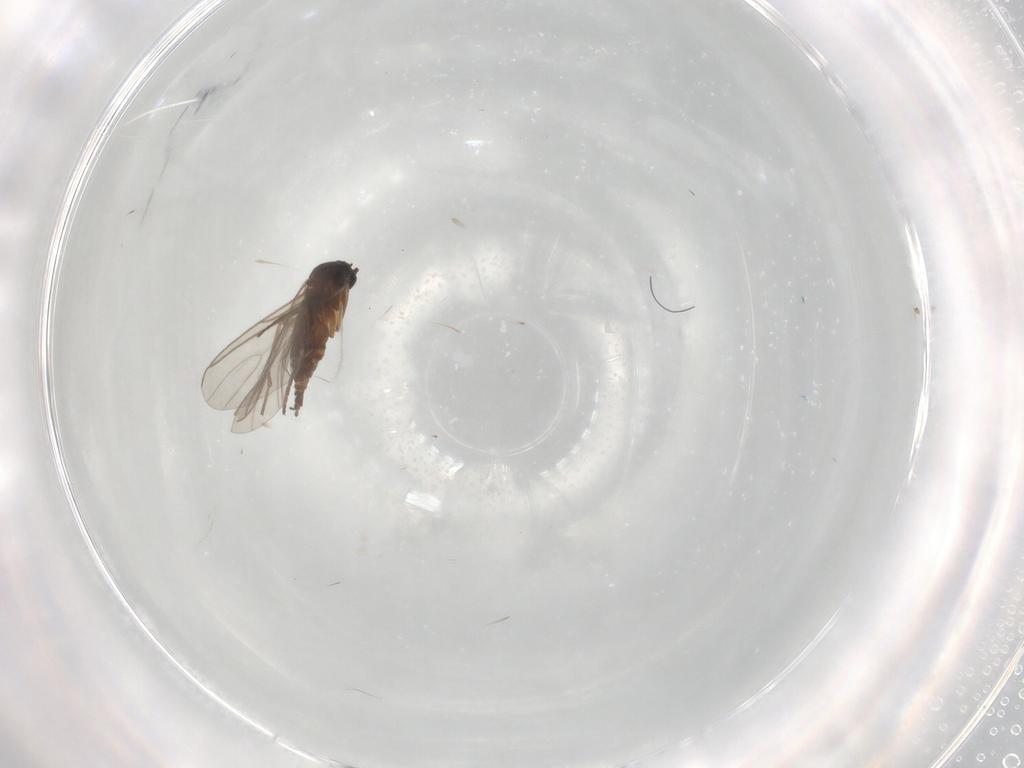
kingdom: Animalia
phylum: Arthropoda
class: Insecta
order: Diptera
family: Sciaridae
